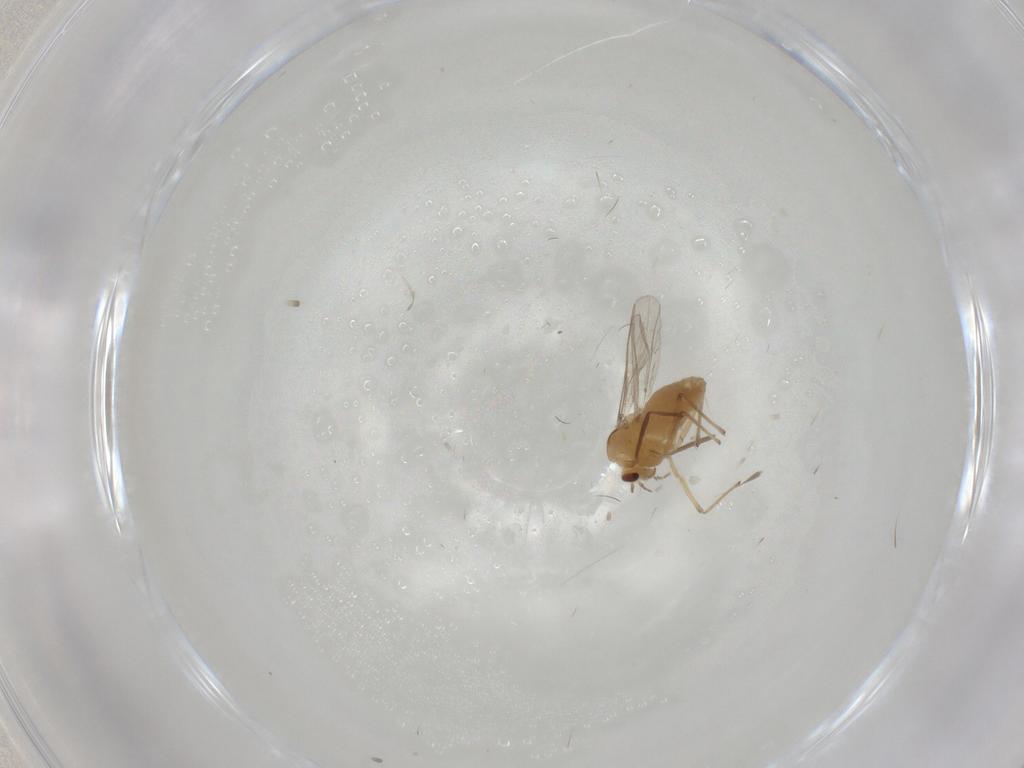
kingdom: Animalia
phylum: Arthropoda
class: Insecta
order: Diptera
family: Chironomidae
